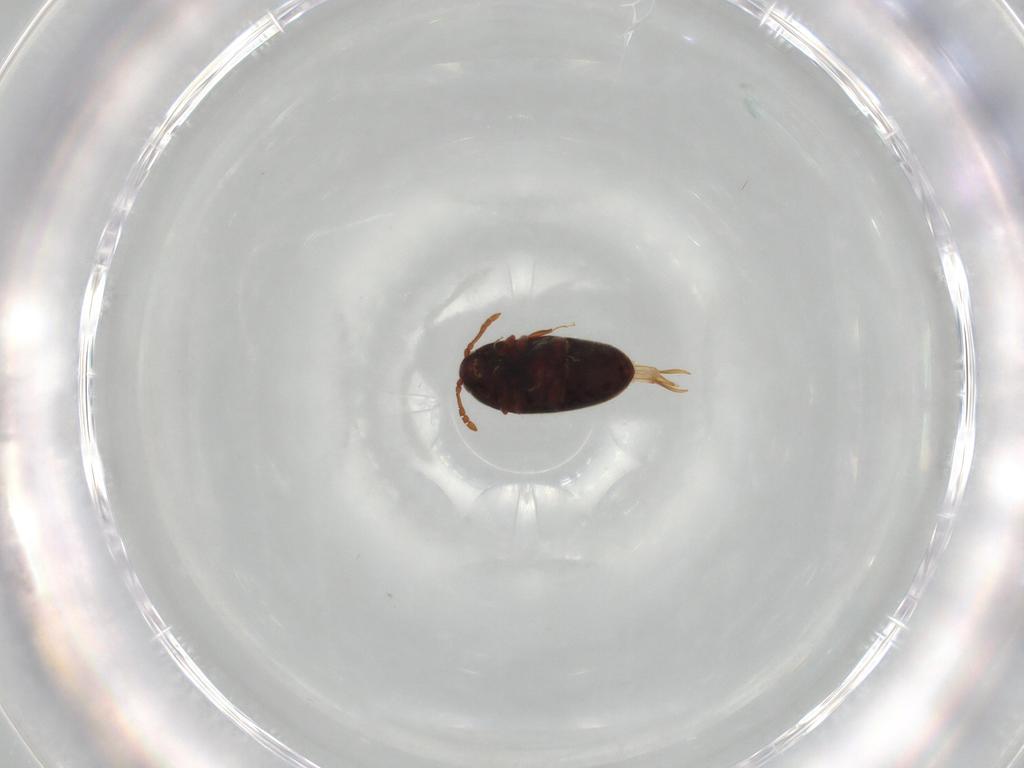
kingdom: Animalia
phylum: Arthropoda
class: Insecta
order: Coleoptera
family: Throscidae
